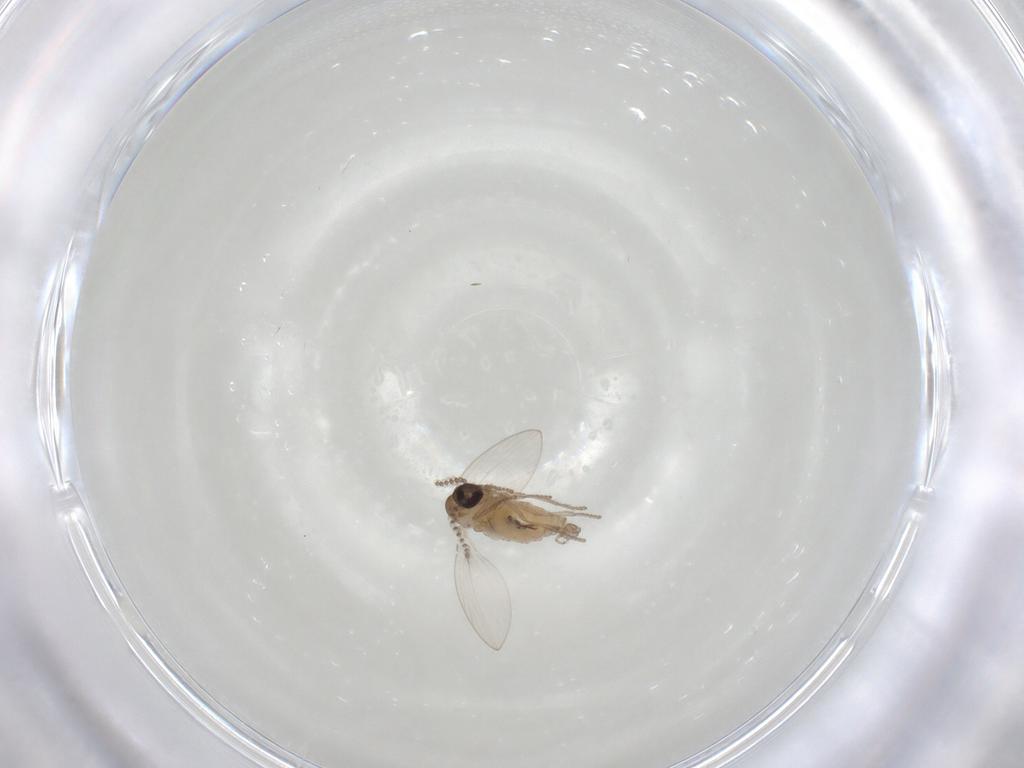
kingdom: Animalia
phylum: Arthropoda
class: Insecta
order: Diptera
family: Psychodidae
